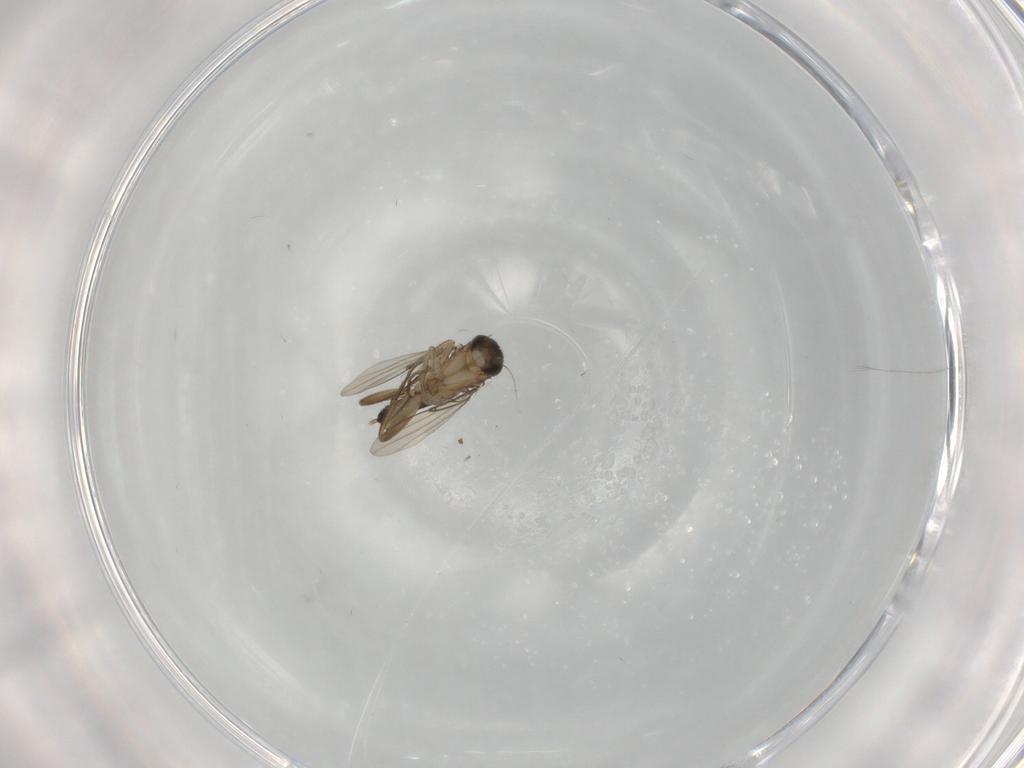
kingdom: Animalia
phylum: Arthropoda
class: Insecta
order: Diptera
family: Phoridae
